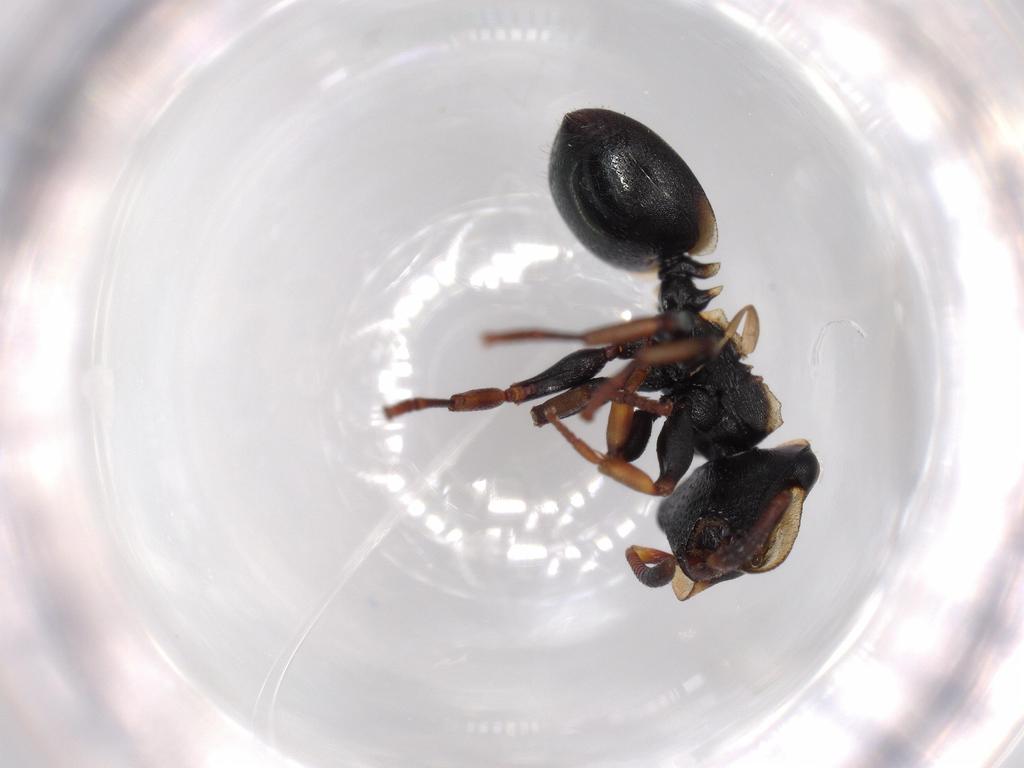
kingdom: Animalia
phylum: Arthropoda
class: Insecta
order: Hymenoptera
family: Formicidae
